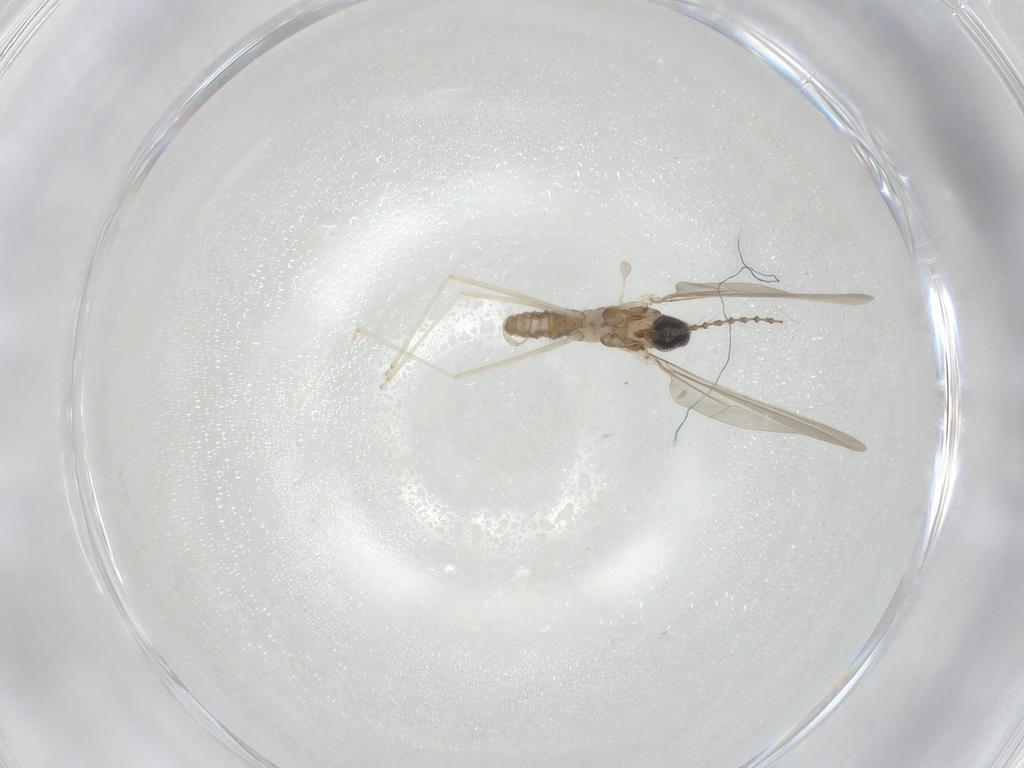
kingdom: Animalia
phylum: Arthropoda
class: Insecta
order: Diptera
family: Cecidomyiidae
